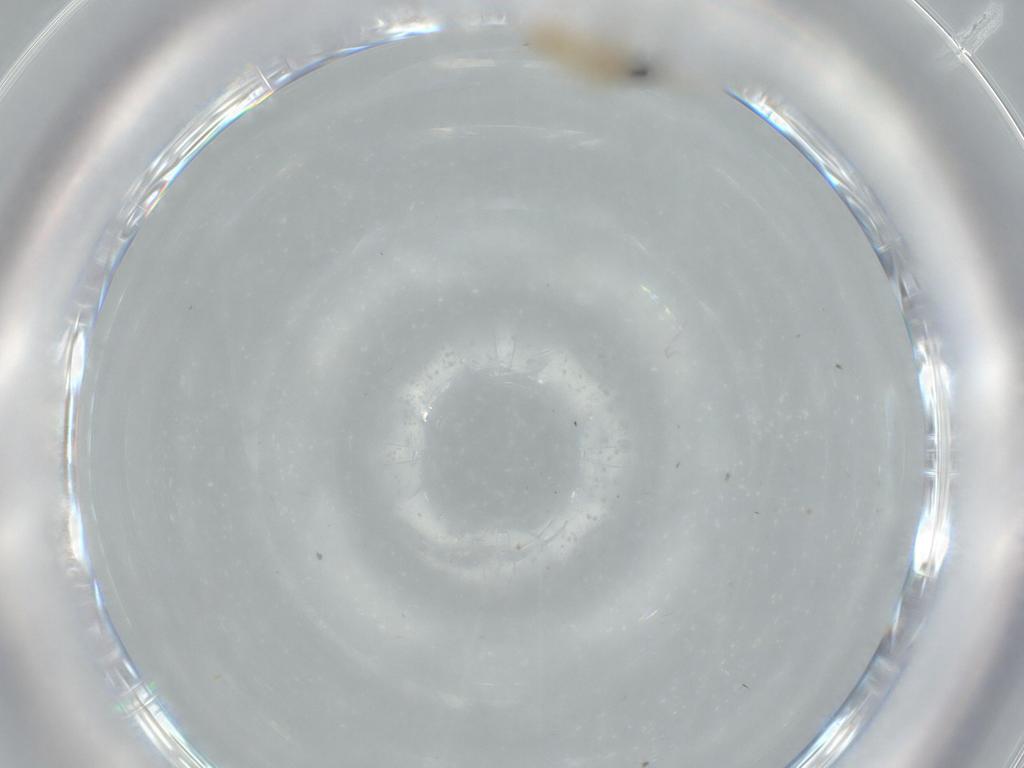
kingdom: Animalia
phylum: Arthropoda
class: Insecta
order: Diptera
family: Cecidomyiidae
